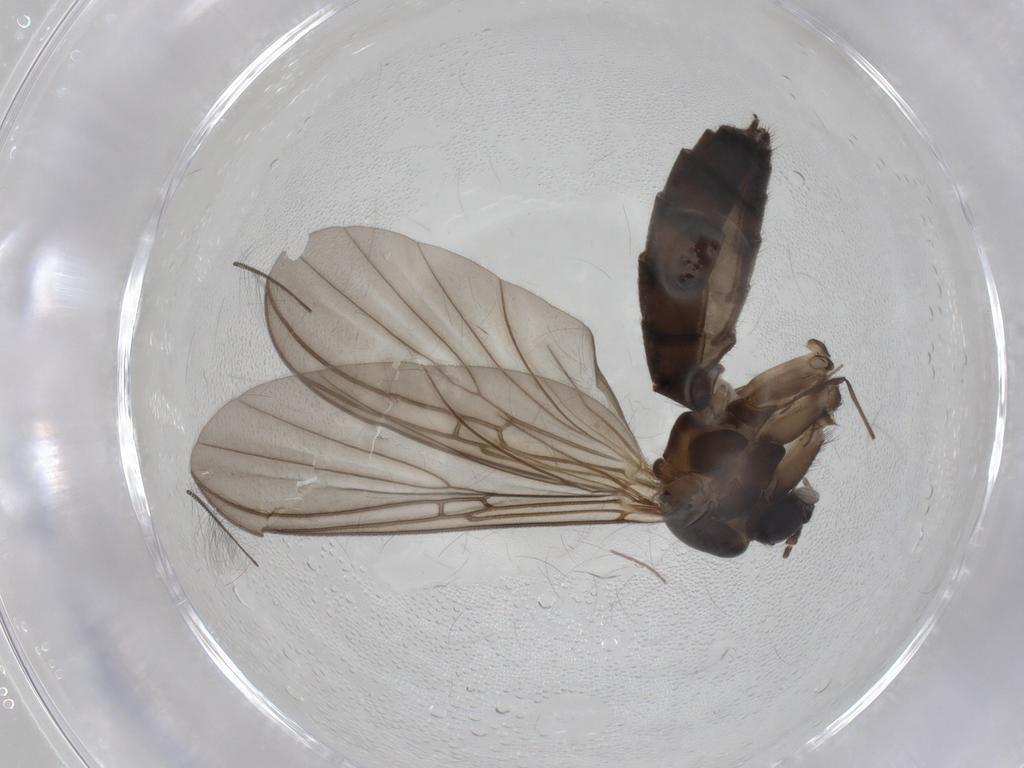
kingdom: Animalia
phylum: Arthropoda
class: Insecta
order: Diptera
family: Mycetophilidae
